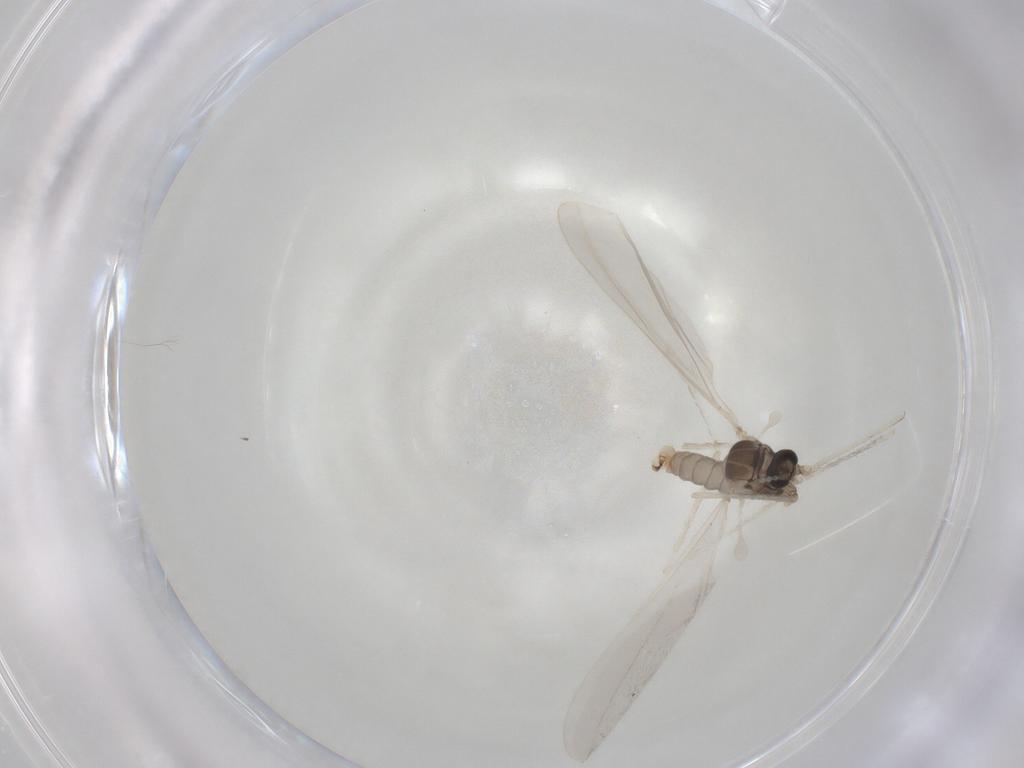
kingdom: Animalia
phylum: Arthropoda
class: Insecta
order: Diptera
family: Cecidomyiidae
